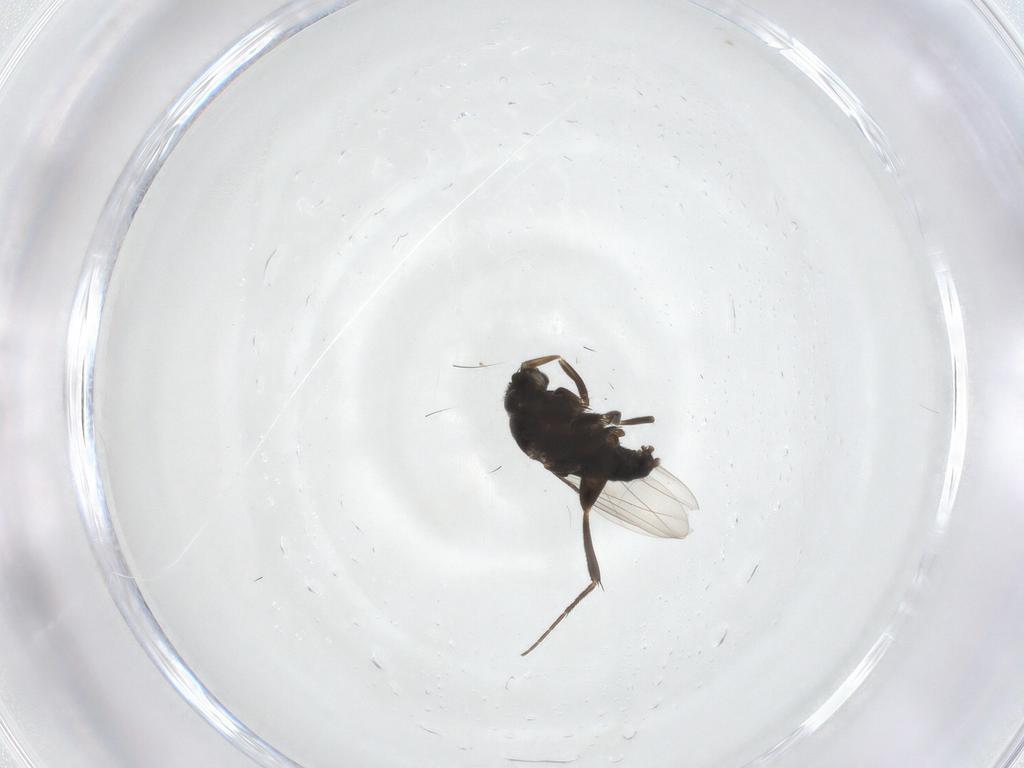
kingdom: Animalia
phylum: Arthropoda
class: Insecta
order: Diptera
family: Phoridae
